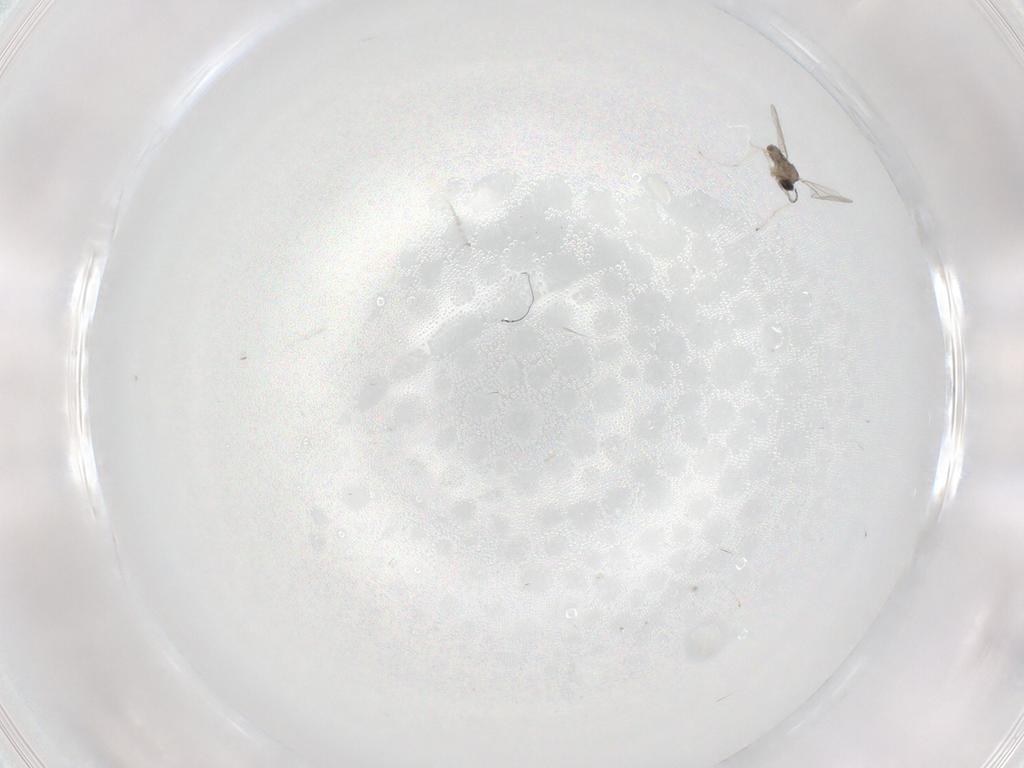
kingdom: Animalia
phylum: Arthropoda
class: Insecta
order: Diptera
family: Cecidomyiidae
